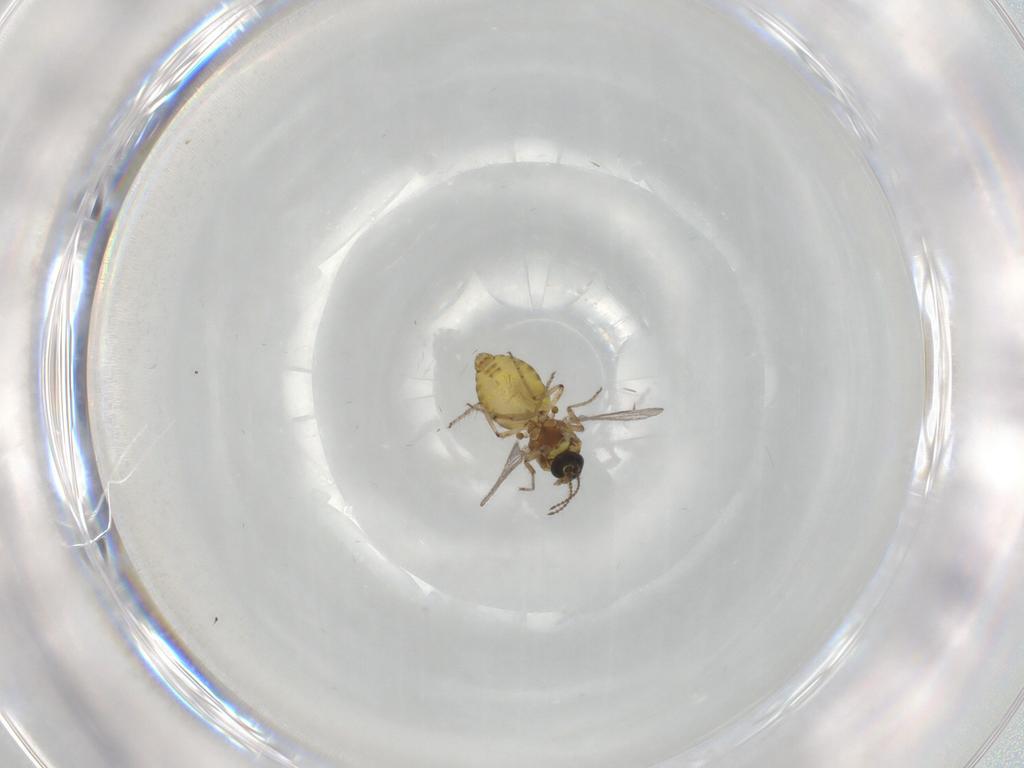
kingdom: Animalia
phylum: Arthropoda
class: Insecta
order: Diptera
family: Ceratopogonidae
